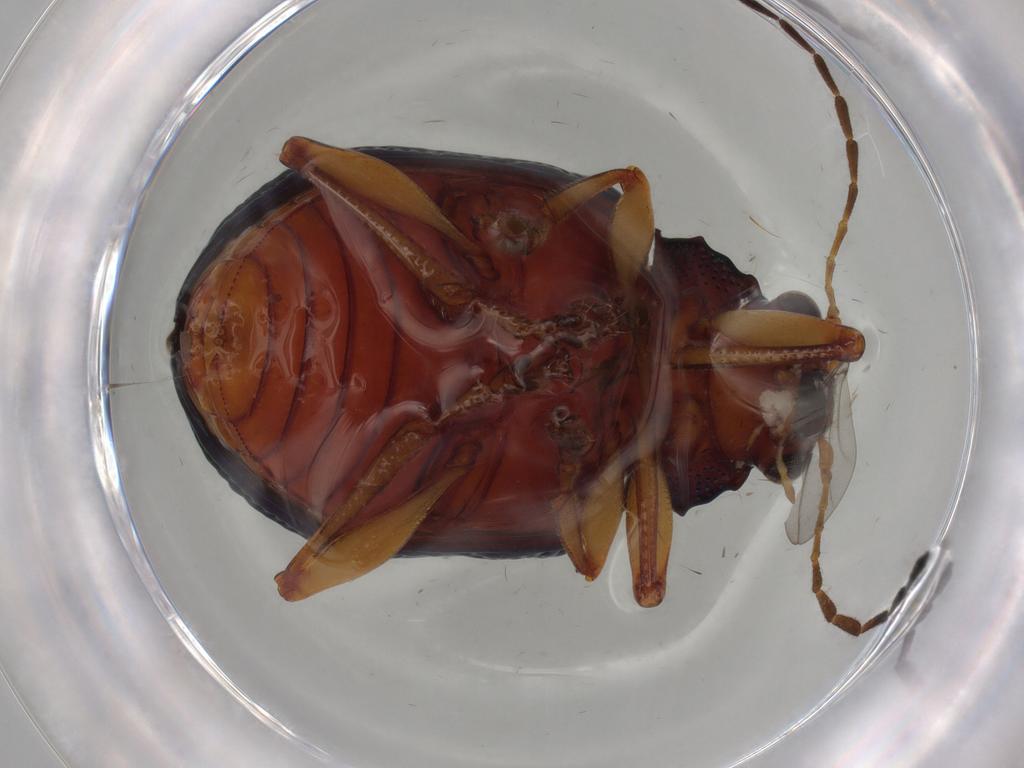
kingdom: Animalia
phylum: Arthropoda
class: Insecta
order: Coleoptera
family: Chrysomelidae
